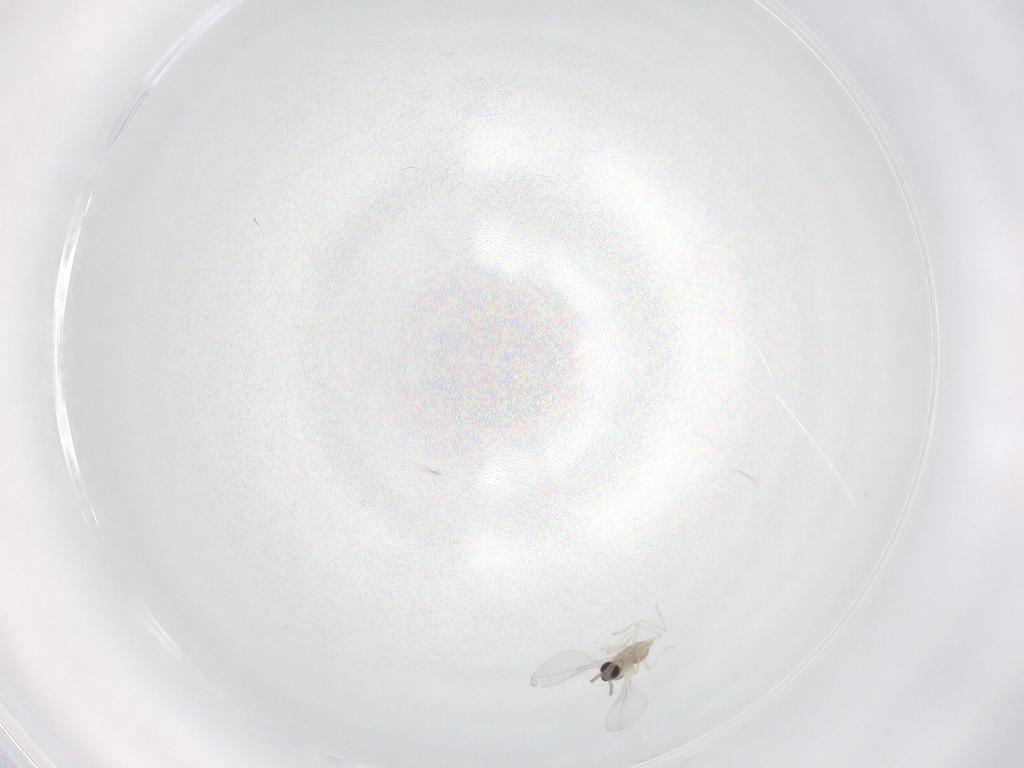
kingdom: Animalia
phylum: Arthropoda
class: Insecta
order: Diptera
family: Cecidomyiidae
